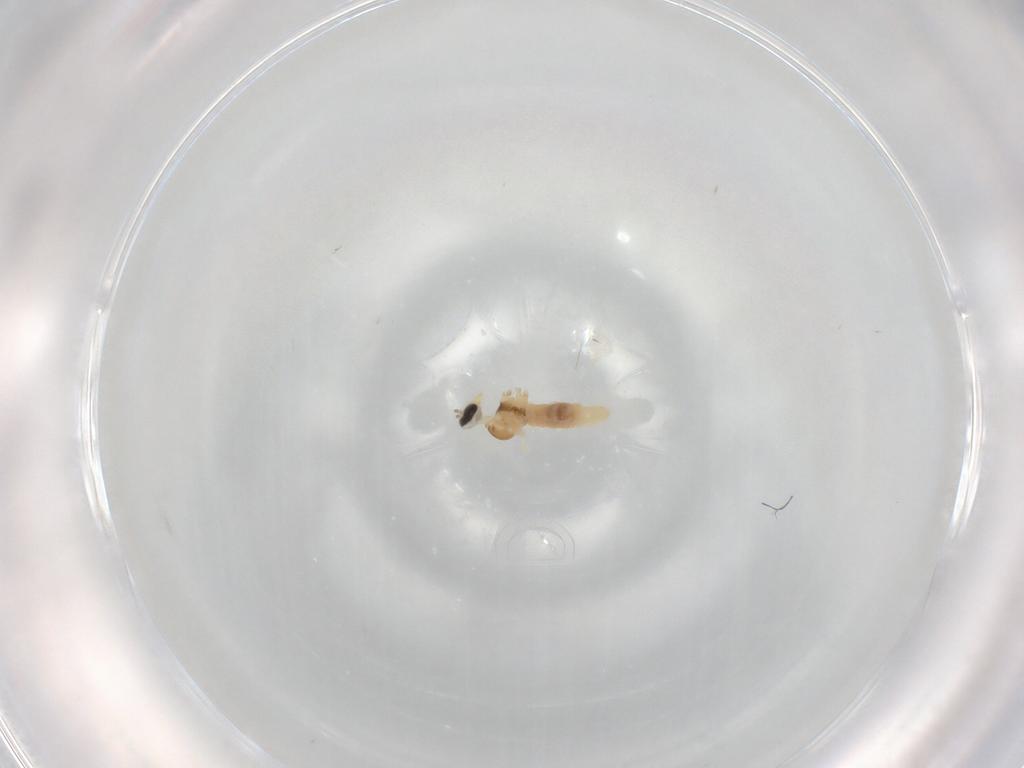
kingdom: Animalia
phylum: Arthropoda
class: Insecta
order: Diptera
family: Cecidomyiidae
